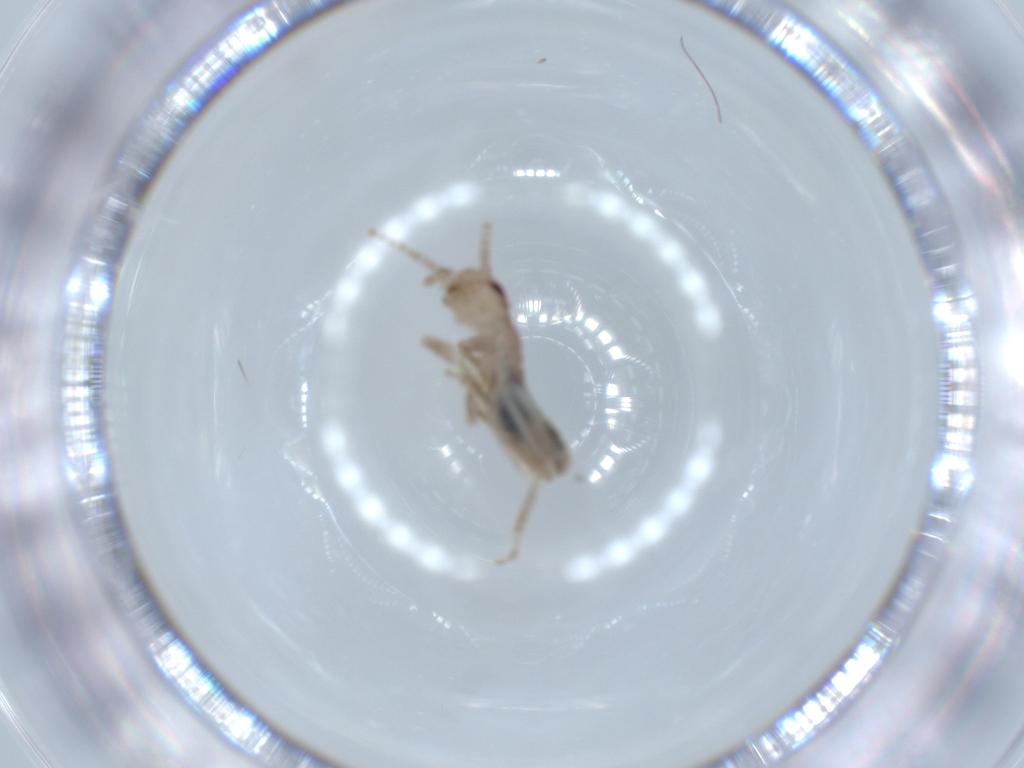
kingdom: Animalia
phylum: Arthropoda
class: Insecta
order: Orthoptera
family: Mogoplistidae
